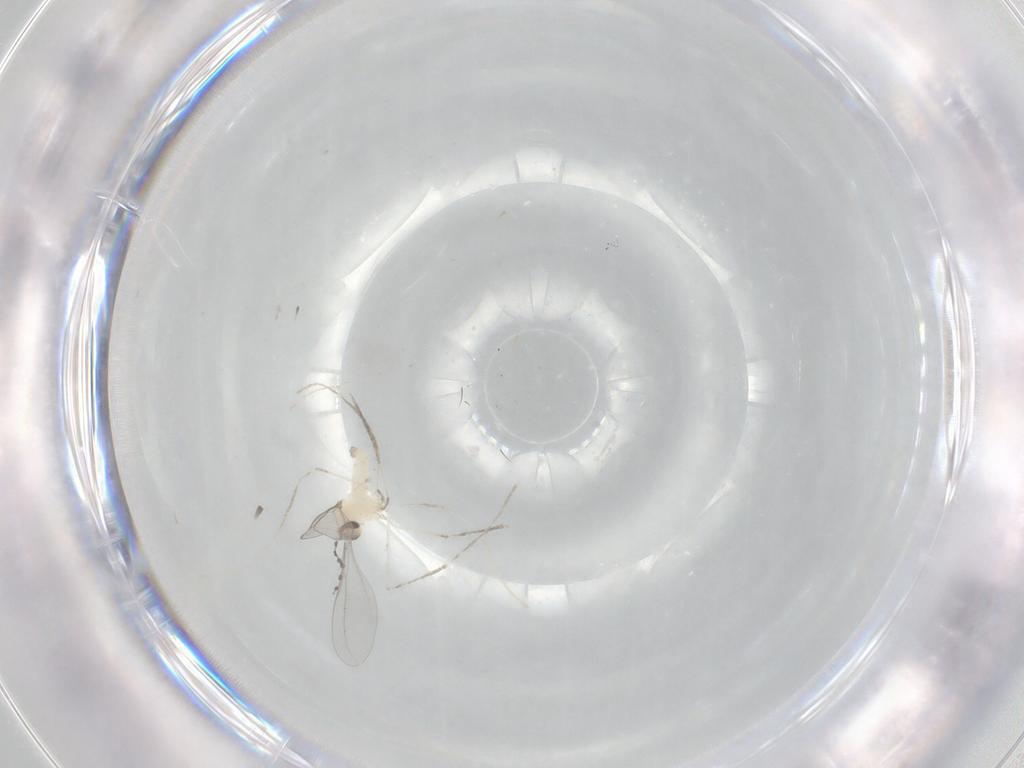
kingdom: Animalia
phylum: Arthropoda
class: Insecta
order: Diptera
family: Cecidomyiidae
